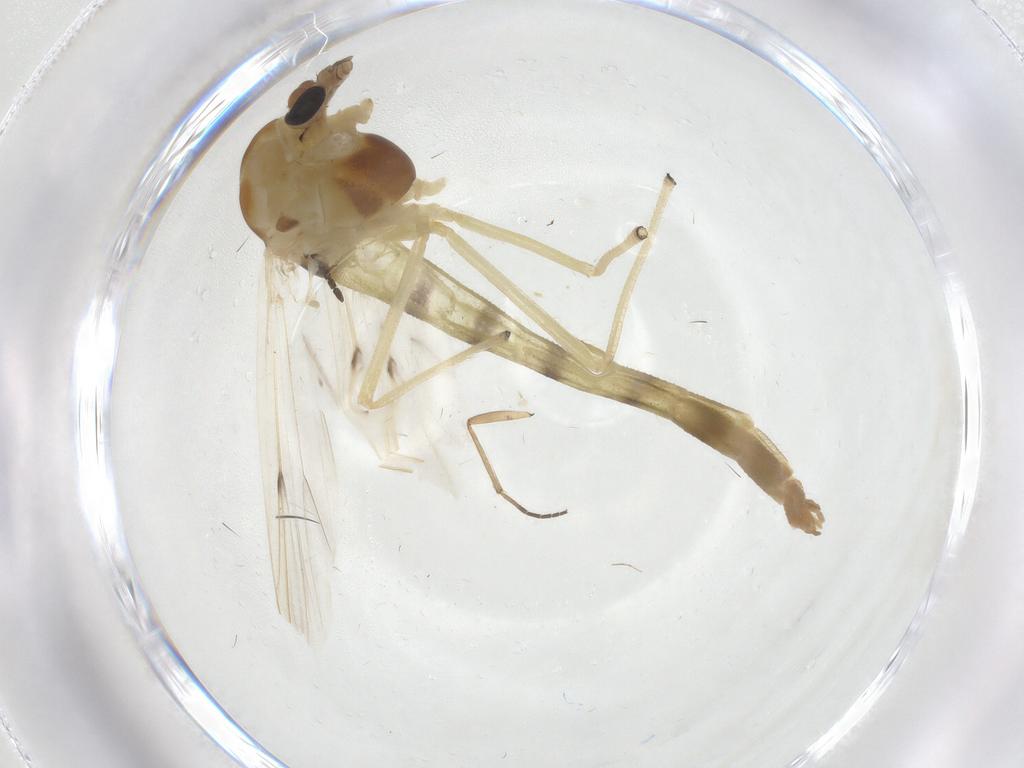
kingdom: Animalia
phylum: Arthropoda
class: Insecta
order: Diptera
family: Chironomidae
